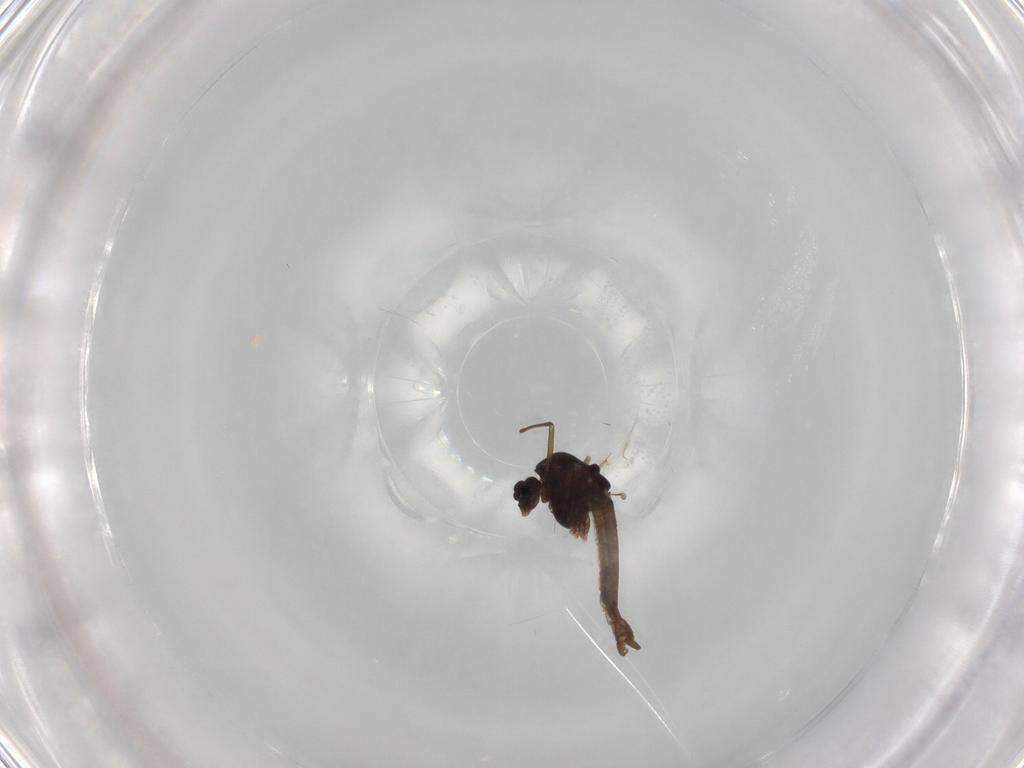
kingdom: Animalia
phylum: Arthropoda
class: Insecta
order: Diptera
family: Chironomidae
